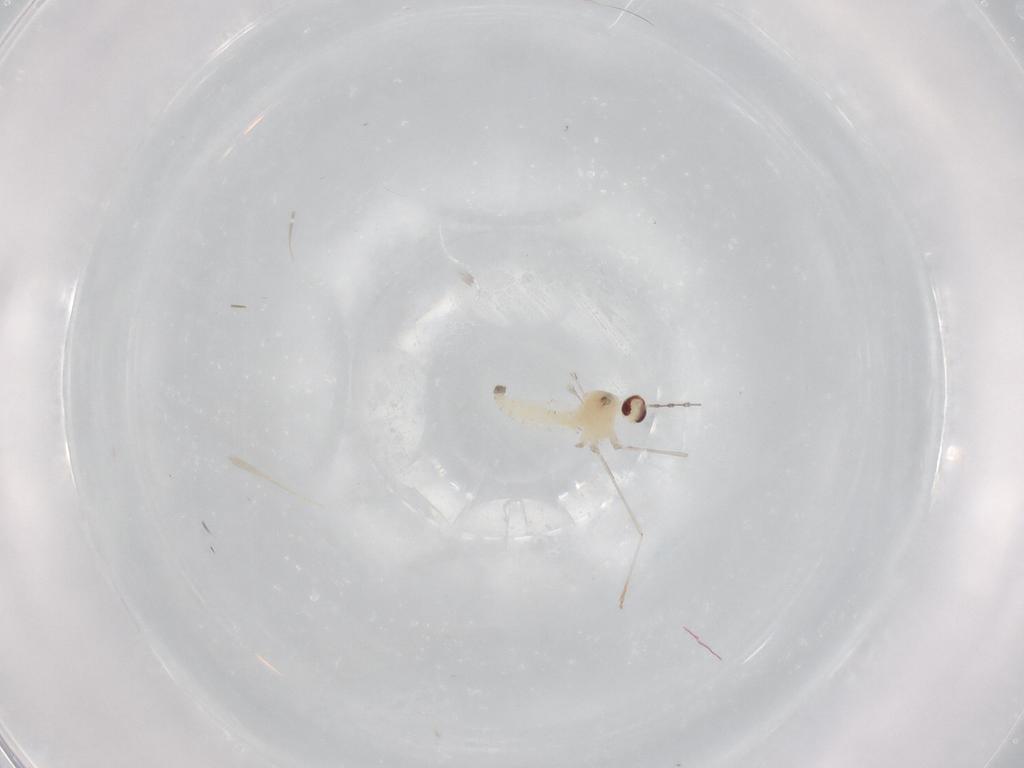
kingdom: Animalia
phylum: Arthropoda
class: Insecta
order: Diptera
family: Cecidomyiidae
